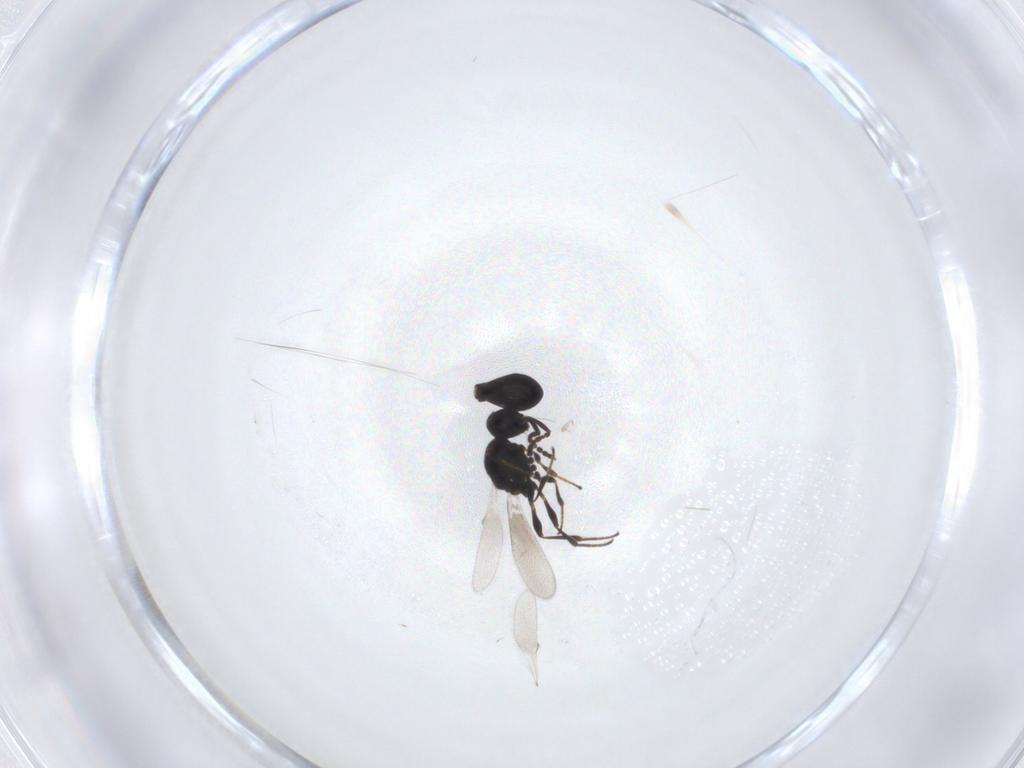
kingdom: Animalia
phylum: Arthropoda
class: Insecta
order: Hymenoptera
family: Platygastridae
